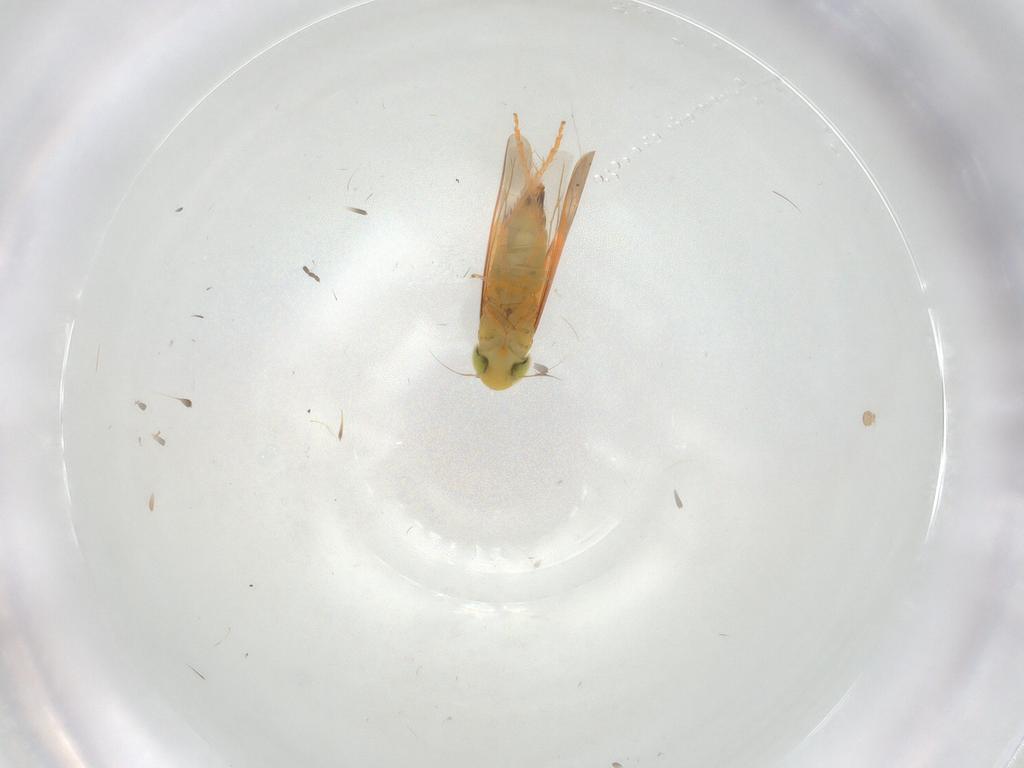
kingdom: Animalia
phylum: Arthropoda
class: Insecta
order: Hemiptera
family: Cicadellidae
